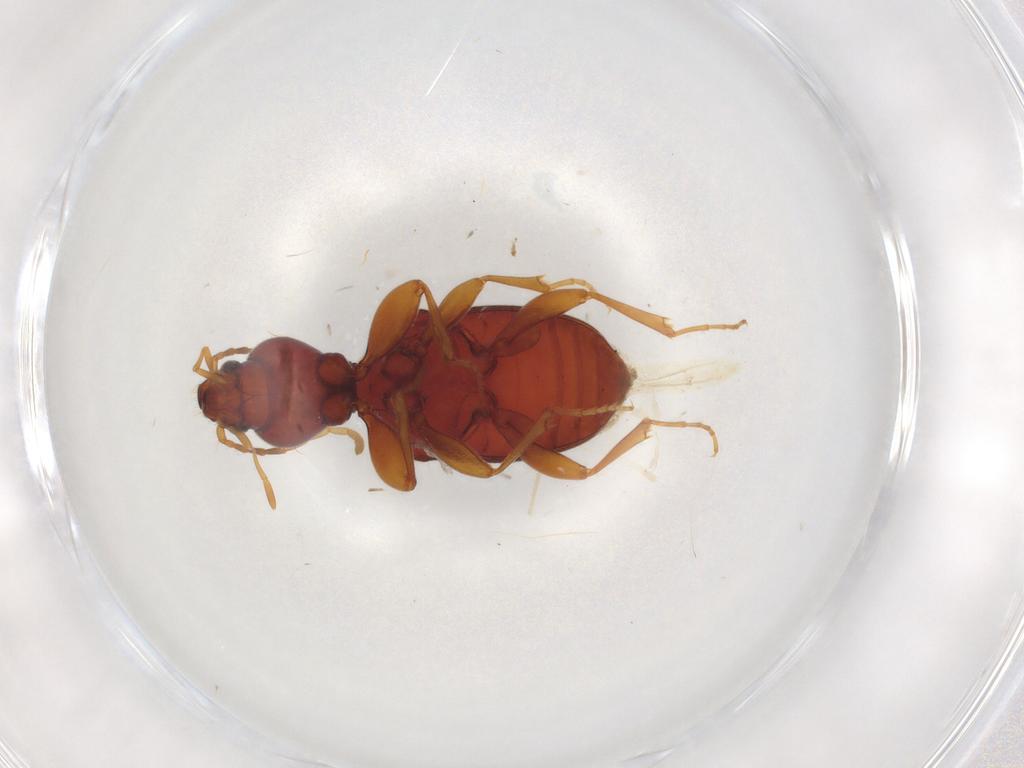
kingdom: Animalia
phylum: Arthropoda
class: Insecta
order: Coleoptera
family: Carabidae
